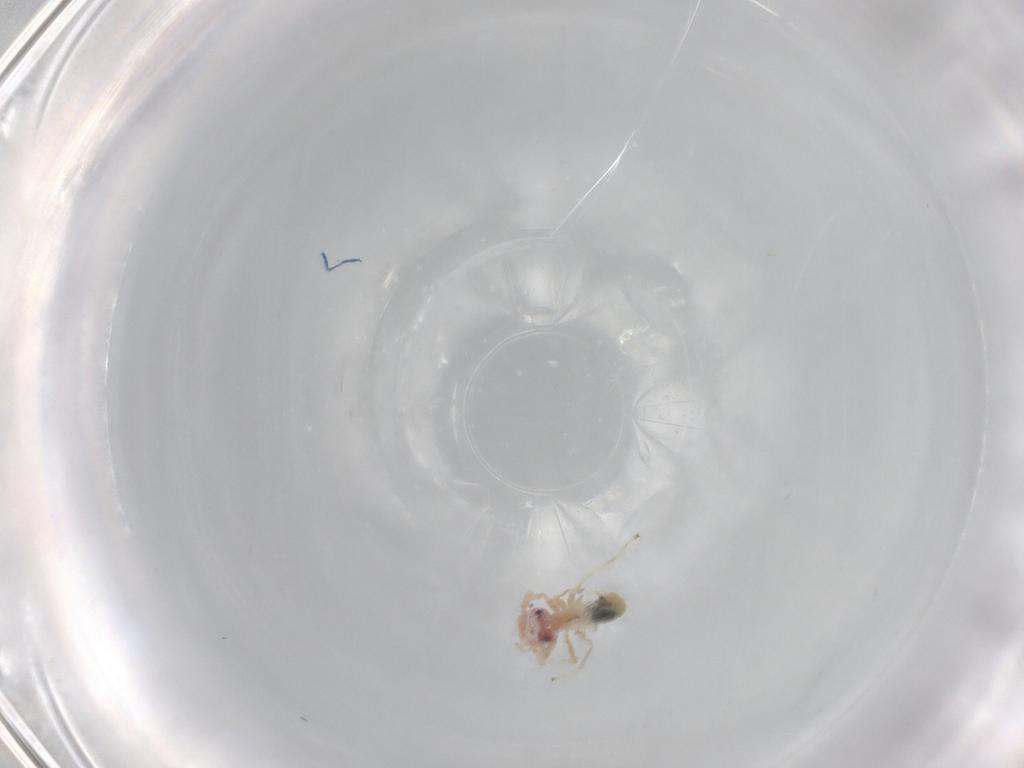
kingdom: Animalia
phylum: Arthropoda
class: Insecta
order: Psocodea
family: Caeciliusidae
